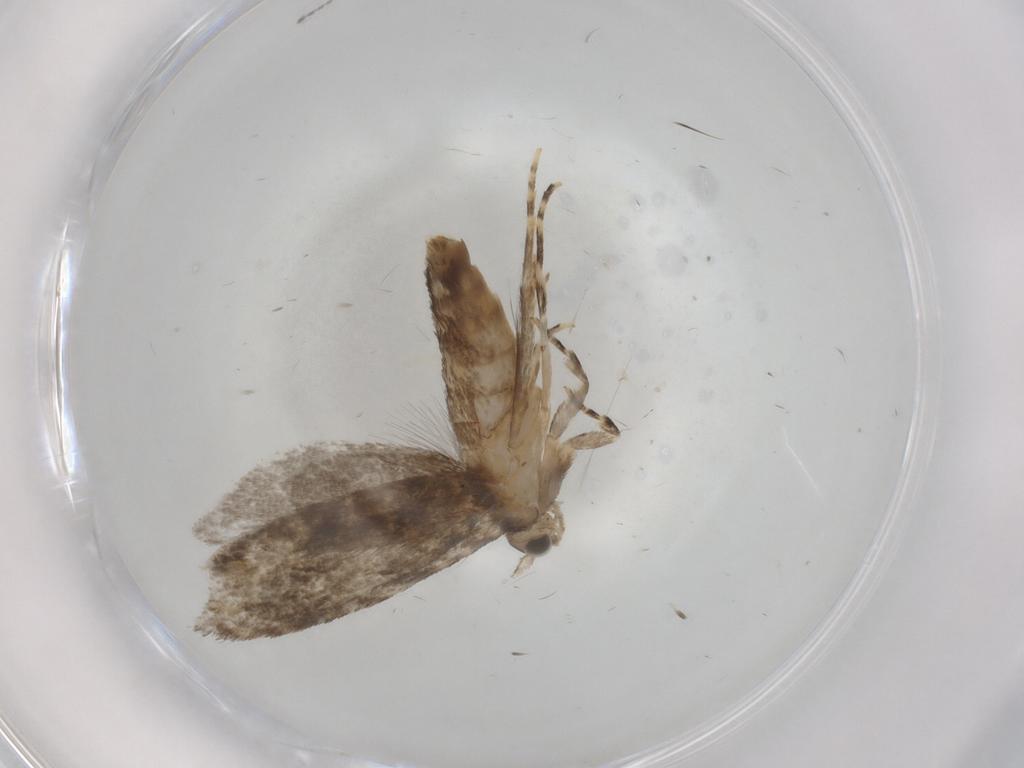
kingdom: Animalia
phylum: Arthropoda
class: Insecta
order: Lepidoptera
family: Tineidae
